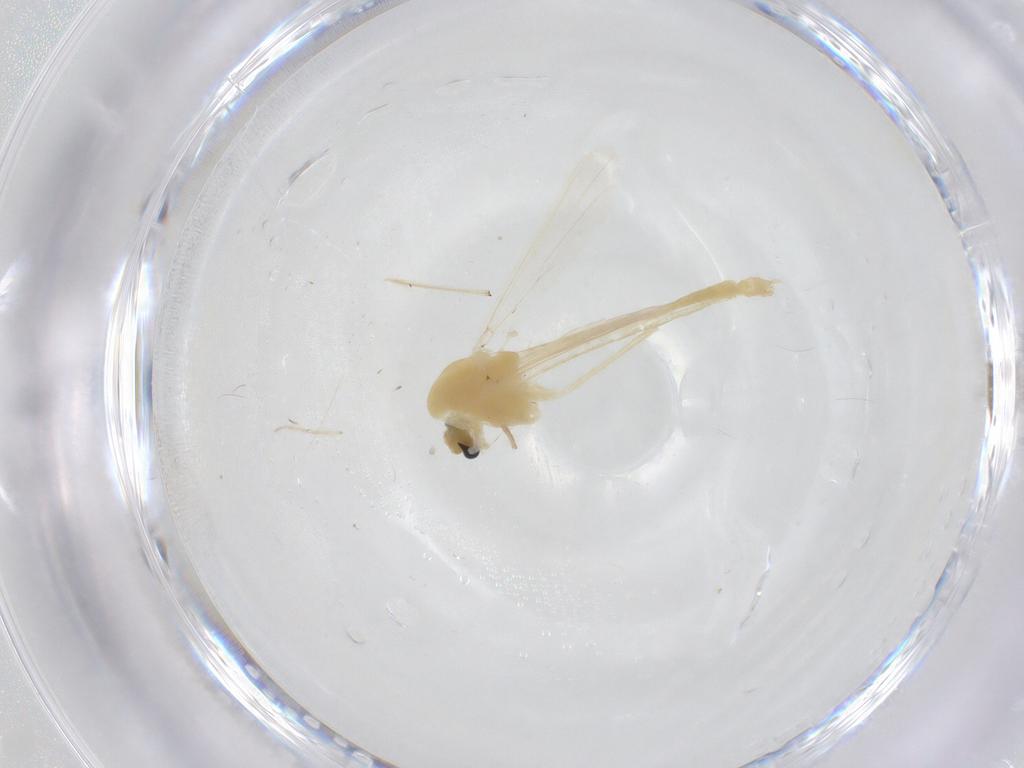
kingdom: Animalia
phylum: Arthropoda
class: Insecta
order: Diptera
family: Chironomidae
